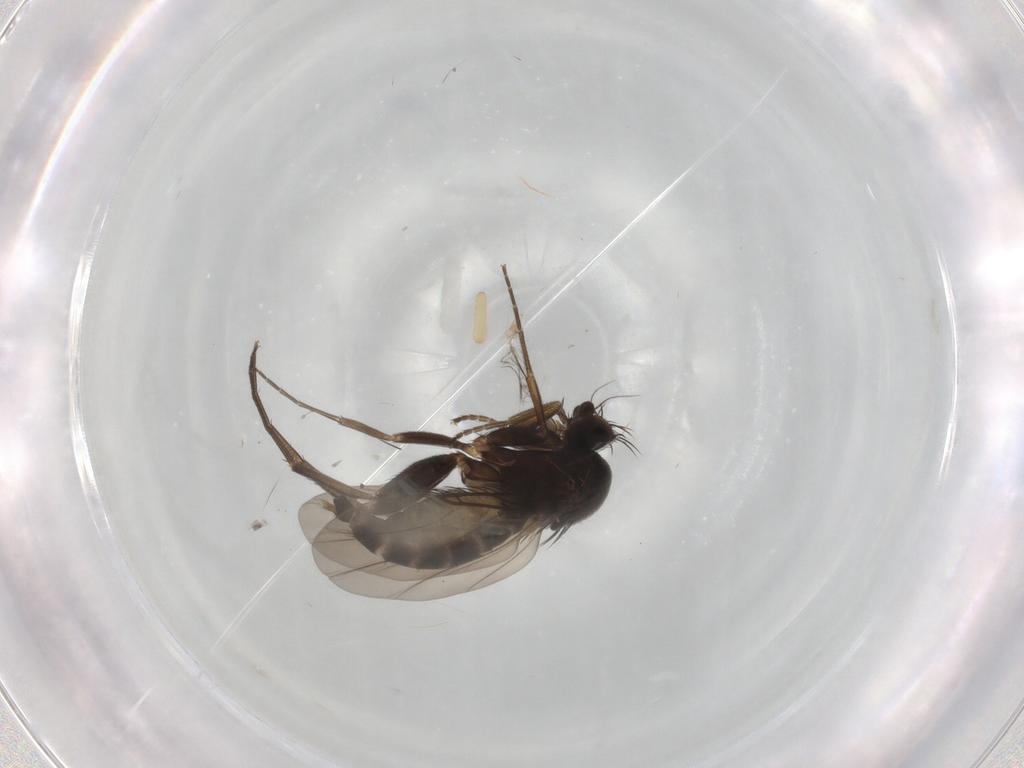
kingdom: Animalia
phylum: Arthropoda
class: Insecta
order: Diptera
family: Phoridae
